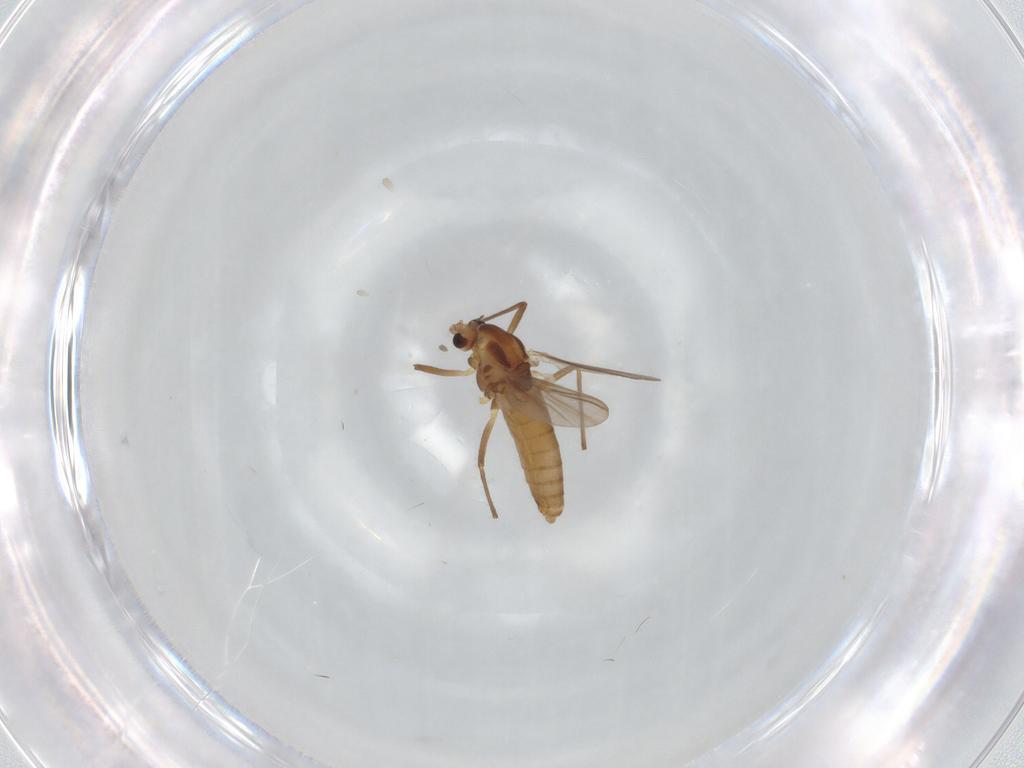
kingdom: Animalia
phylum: Arthropoda
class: Insecta
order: Diptera
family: Chironomidae
